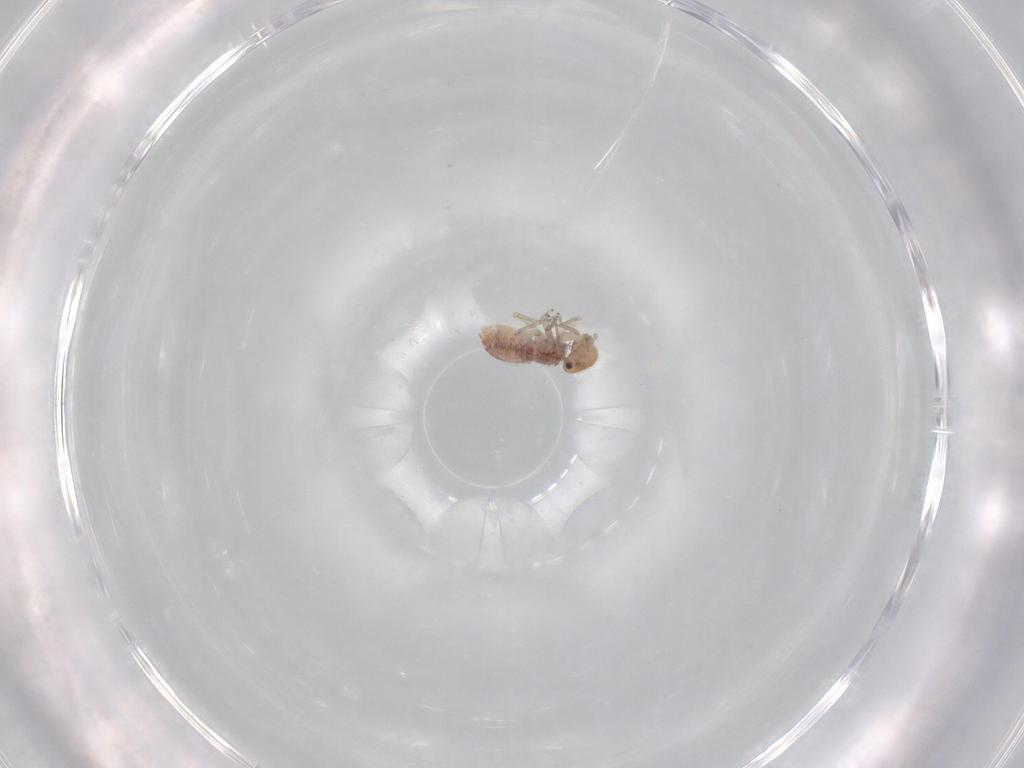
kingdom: Animalia
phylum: Arthropoda
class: Insecta
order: Psocodea
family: Ectopsocidae
